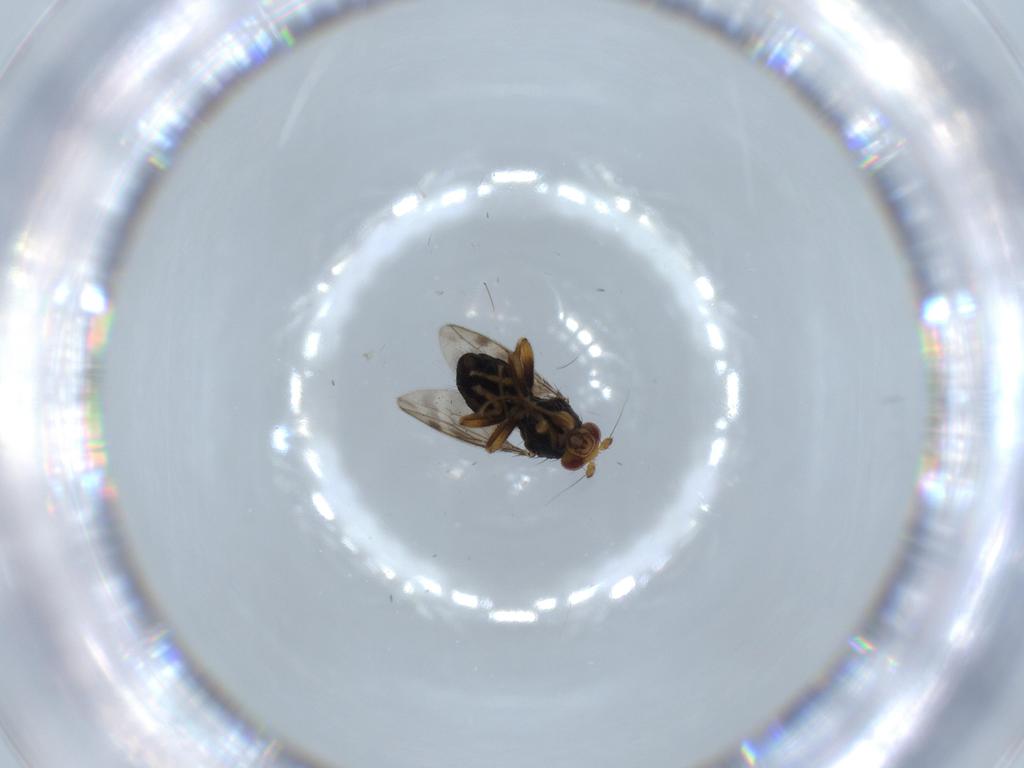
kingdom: Animalia
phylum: Arthropoda
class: Insecta
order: Diptera
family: Sphaeroceridae
